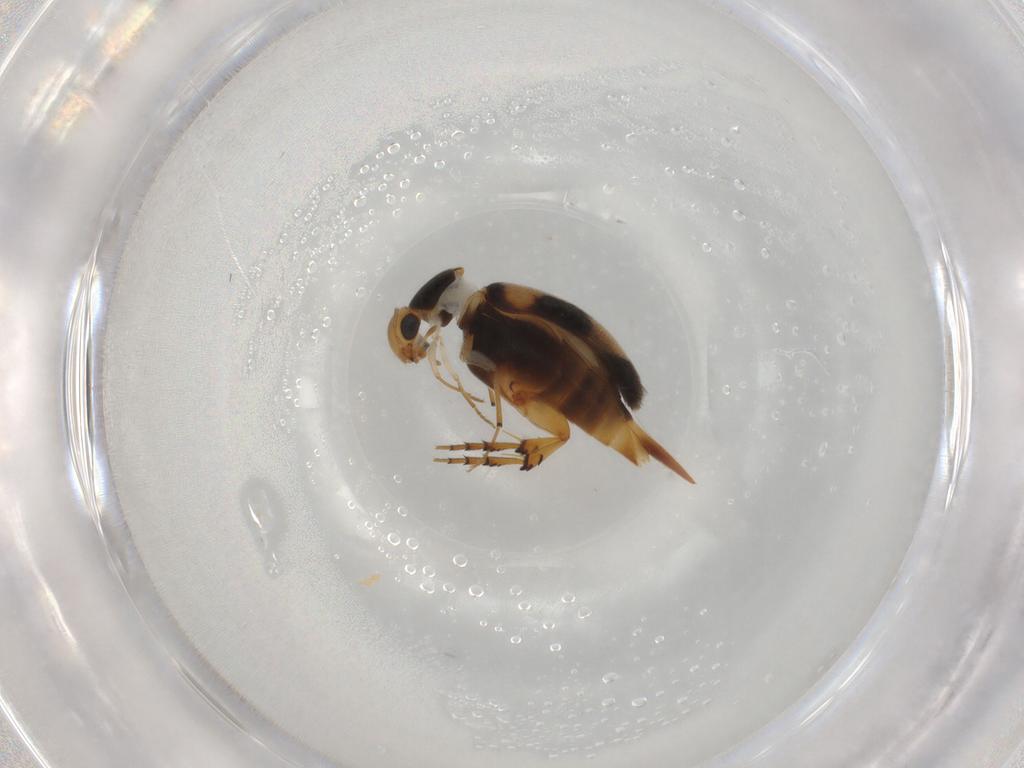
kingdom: Animalia
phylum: Arthropoda
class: Insecta
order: Coleoptera
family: Mordellidae
